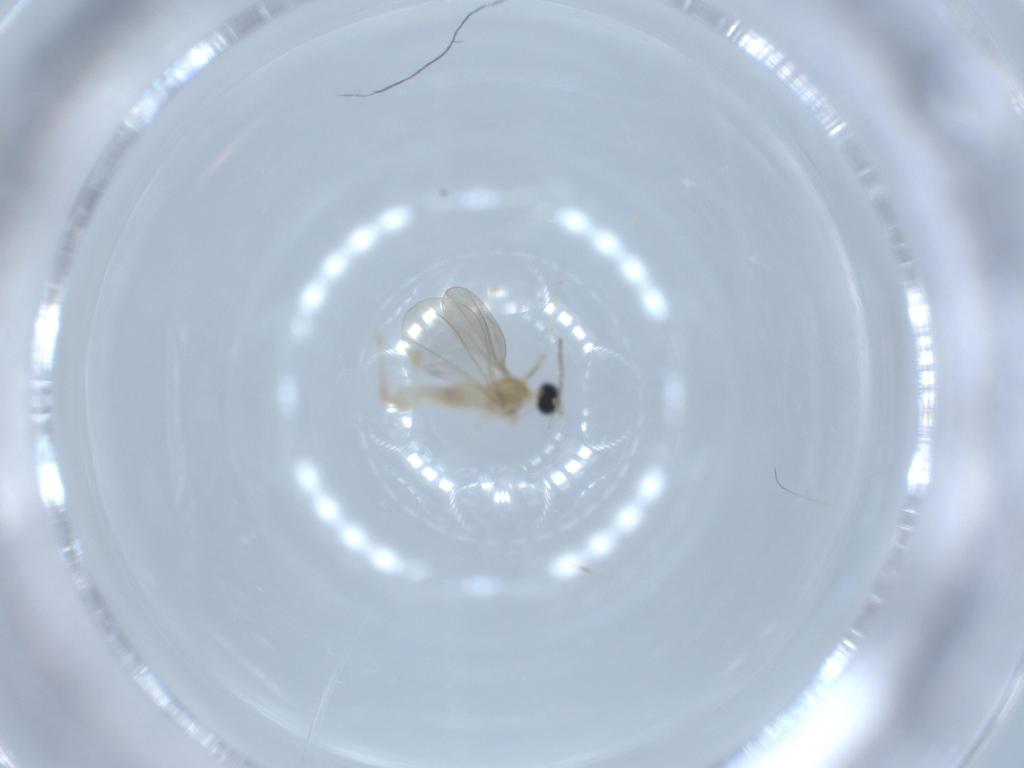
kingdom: Animalia
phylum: Arthropoda
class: Insecta
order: Diptera
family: Cecidomyiidae
